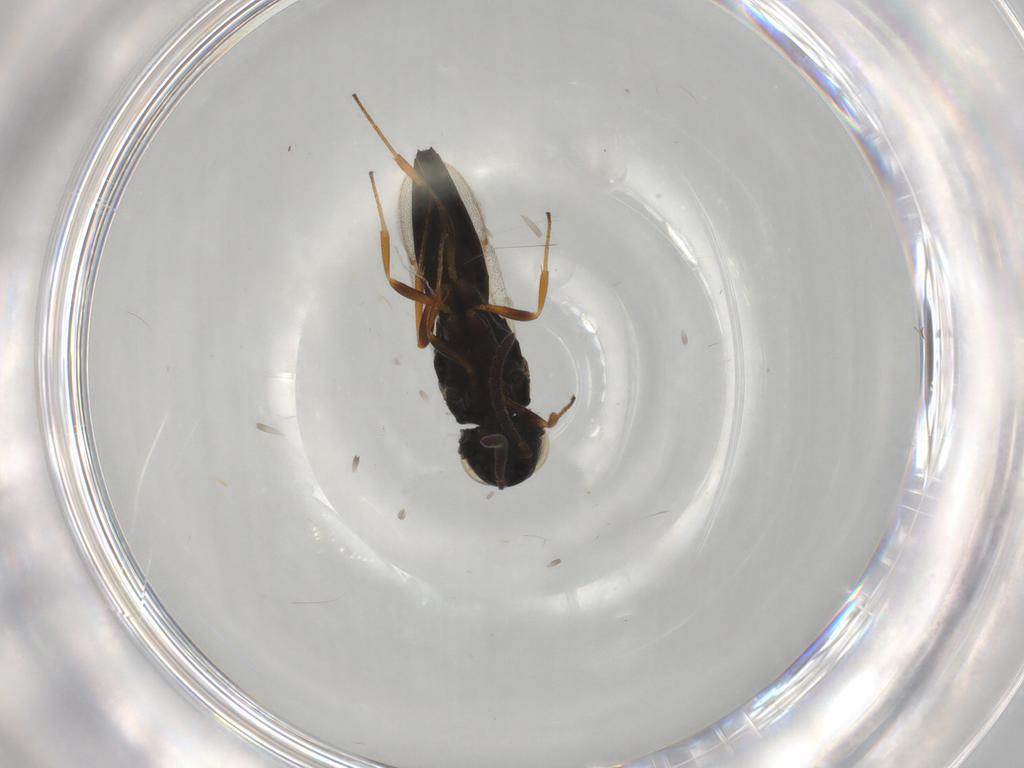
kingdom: Animalia
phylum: Arthropoda
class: Insecta
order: Hymenoptera
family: Scelionidae
